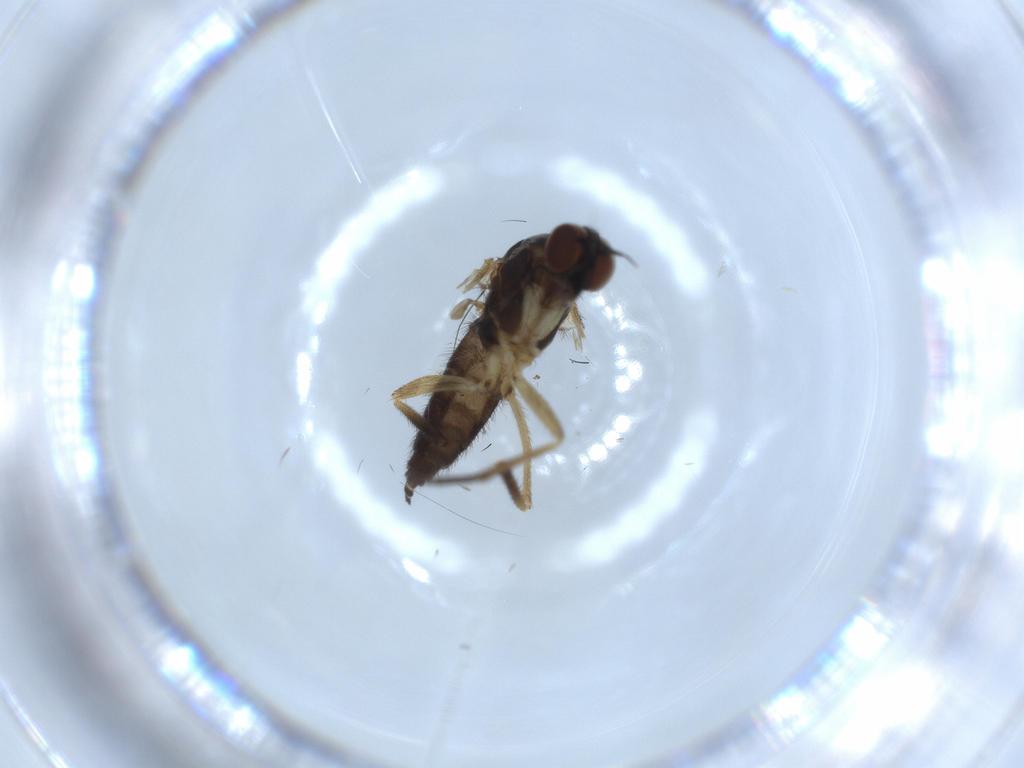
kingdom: Animalia
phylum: Arthropoda
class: Insecta
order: Diptera
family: Empididae
